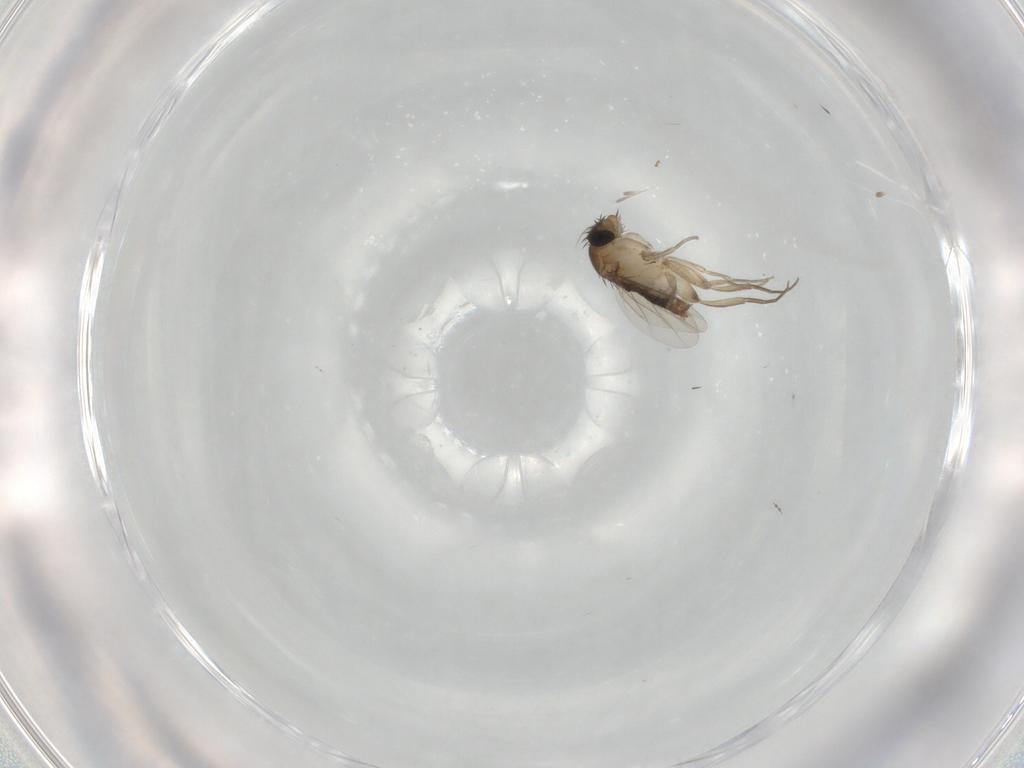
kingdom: Animalia
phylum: Arthropoda
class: Insecta
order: Diptera
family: Phoridae
